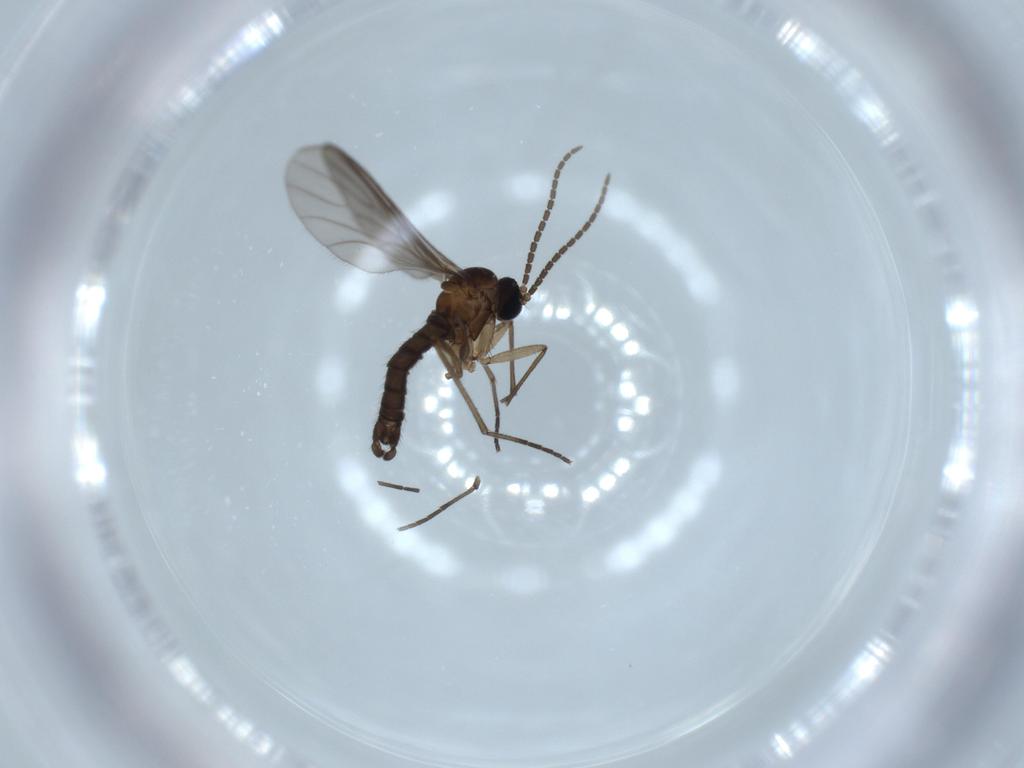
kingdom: Animalia
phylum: Arthropoda
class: Insecta
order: Diptera
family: Sciaridae
